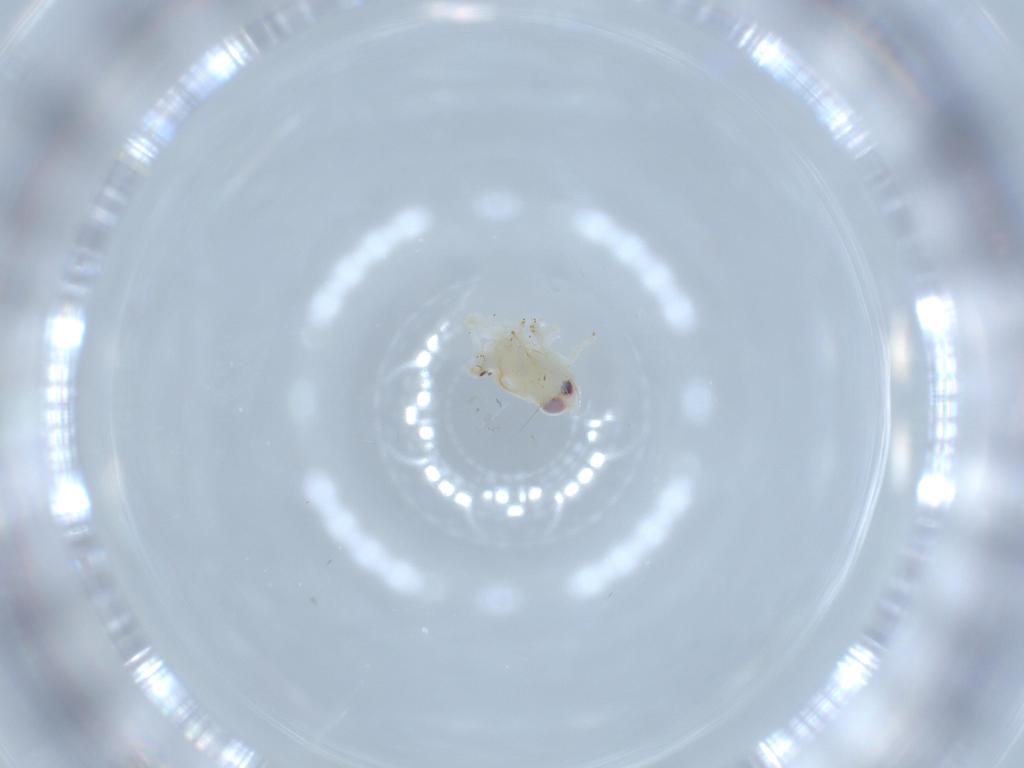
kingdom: Animalia
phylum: Arthropoda
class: Insecta
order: Hemiptera
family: Nogodinidae
